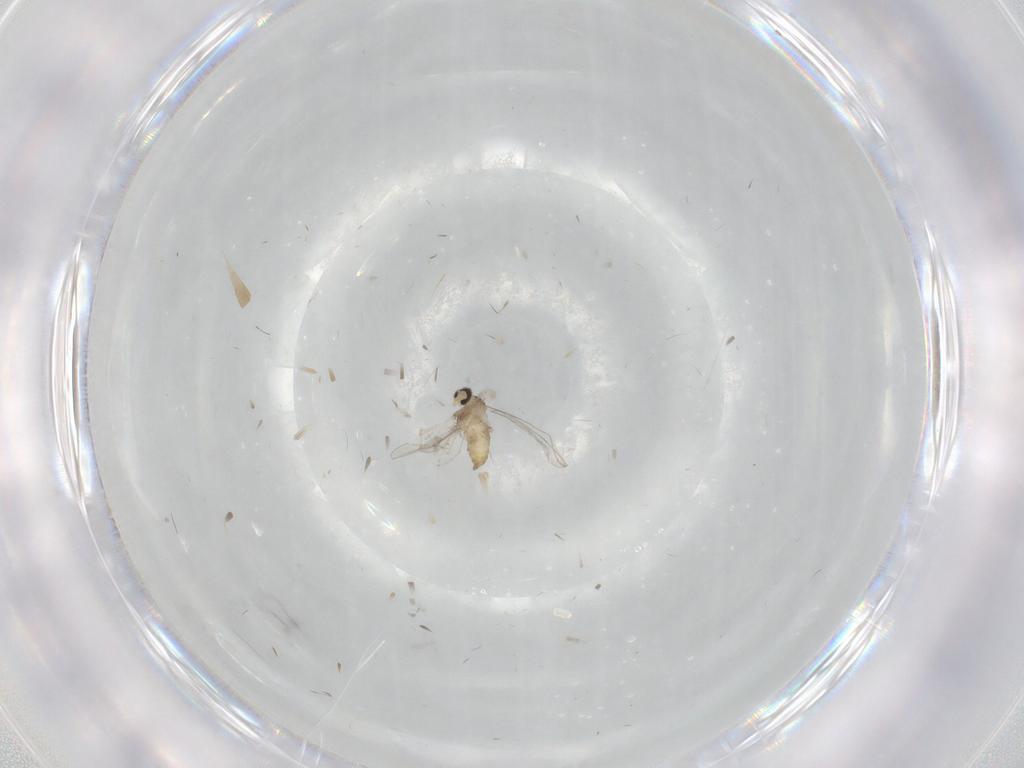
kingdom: Animalia
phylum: Arthropoda
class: Insecta
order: Diptera
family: Cecidomyiidae
